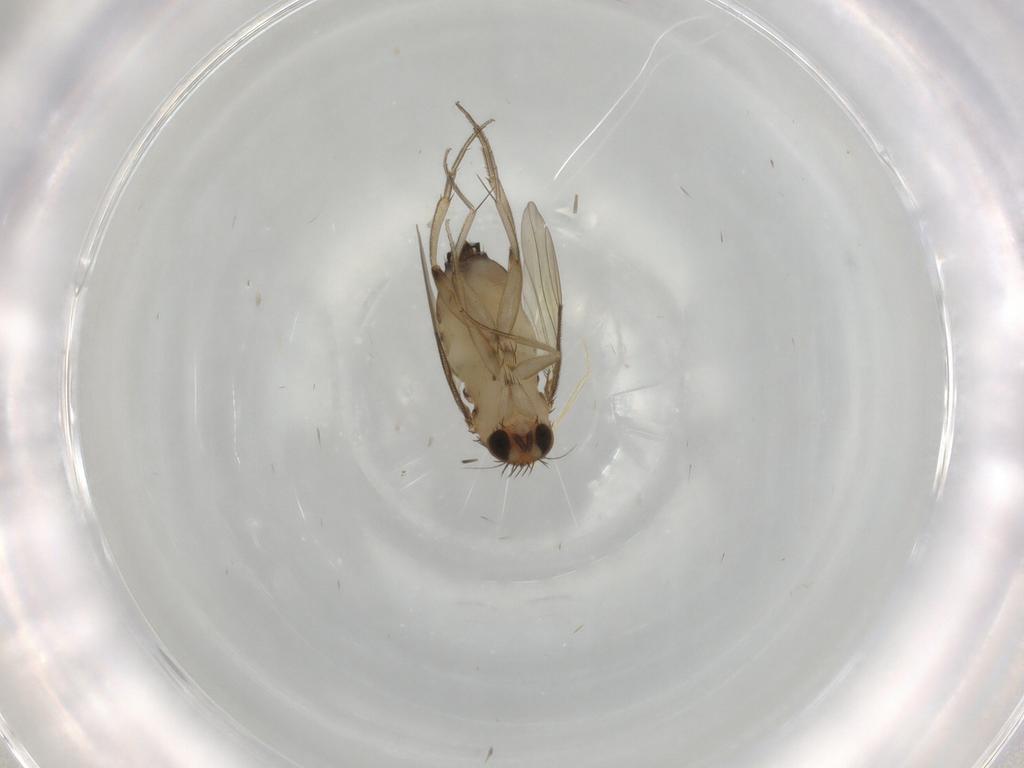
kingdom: Animalia
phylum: Arthropoda
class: Insecta
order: Diptera
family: Phoridae
